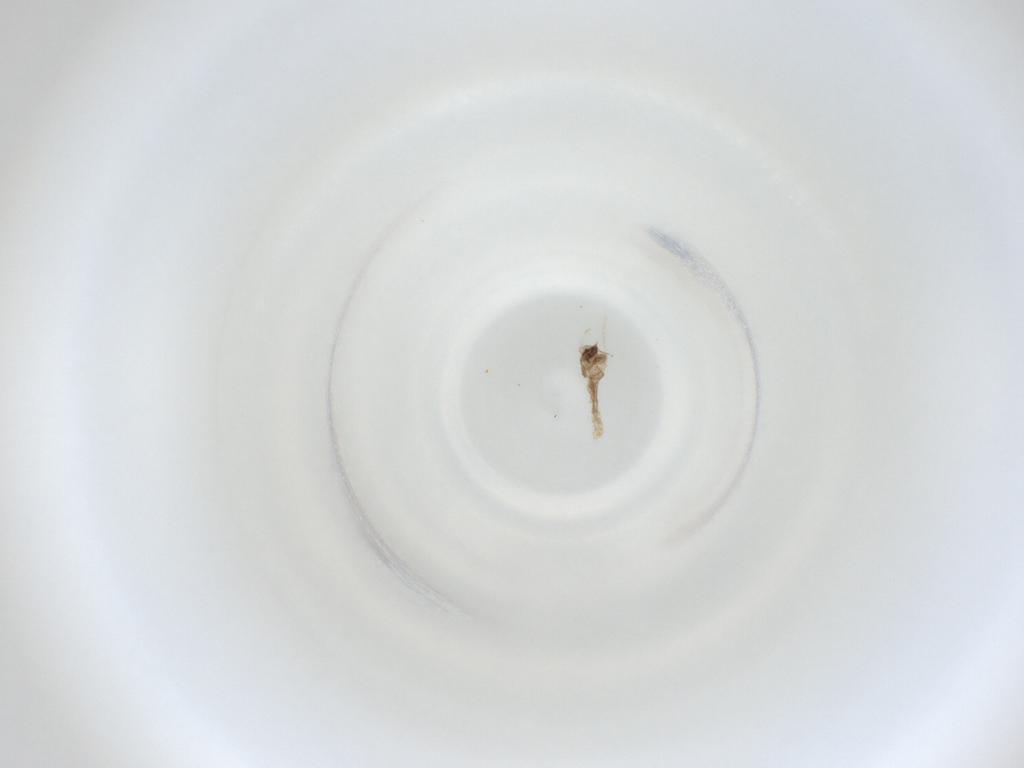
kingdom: Animalia
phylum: Arthropoda
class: Insecta
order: Diptera
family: Cecidomyiidae
